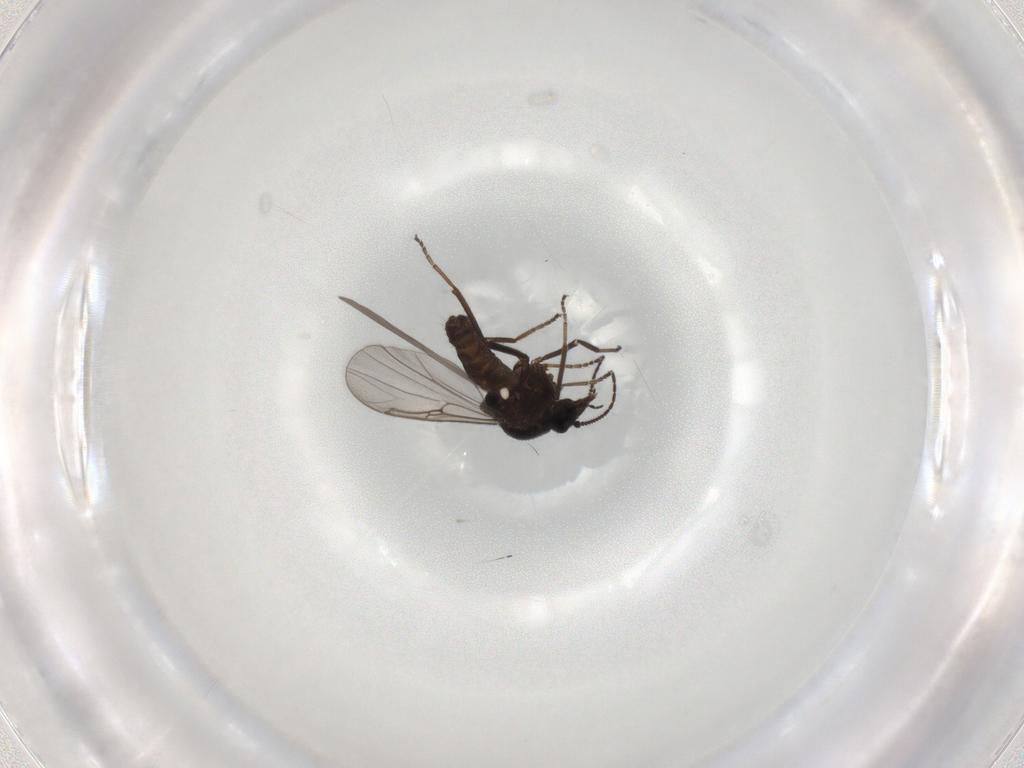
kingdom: Animalia
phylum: Arthropoda
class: Insecta
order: Diptera
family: Ceratopogonidae
